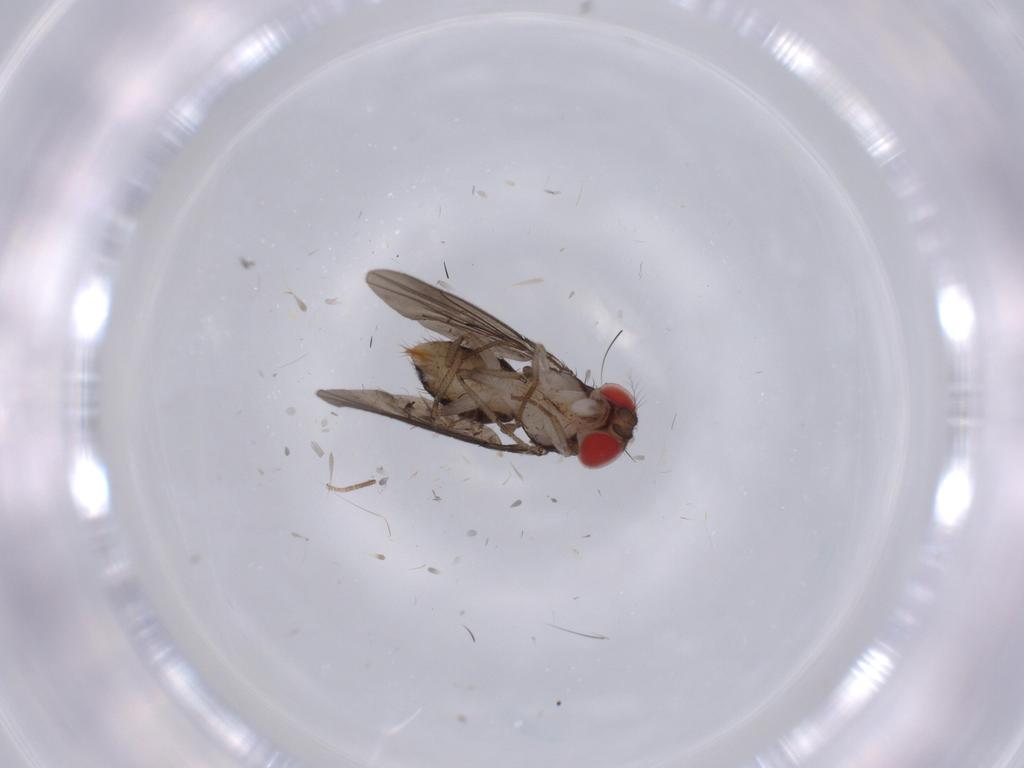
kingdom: Animalia
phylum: Arthropoda
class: Insecta
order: Diptera
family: Drosophilidae
